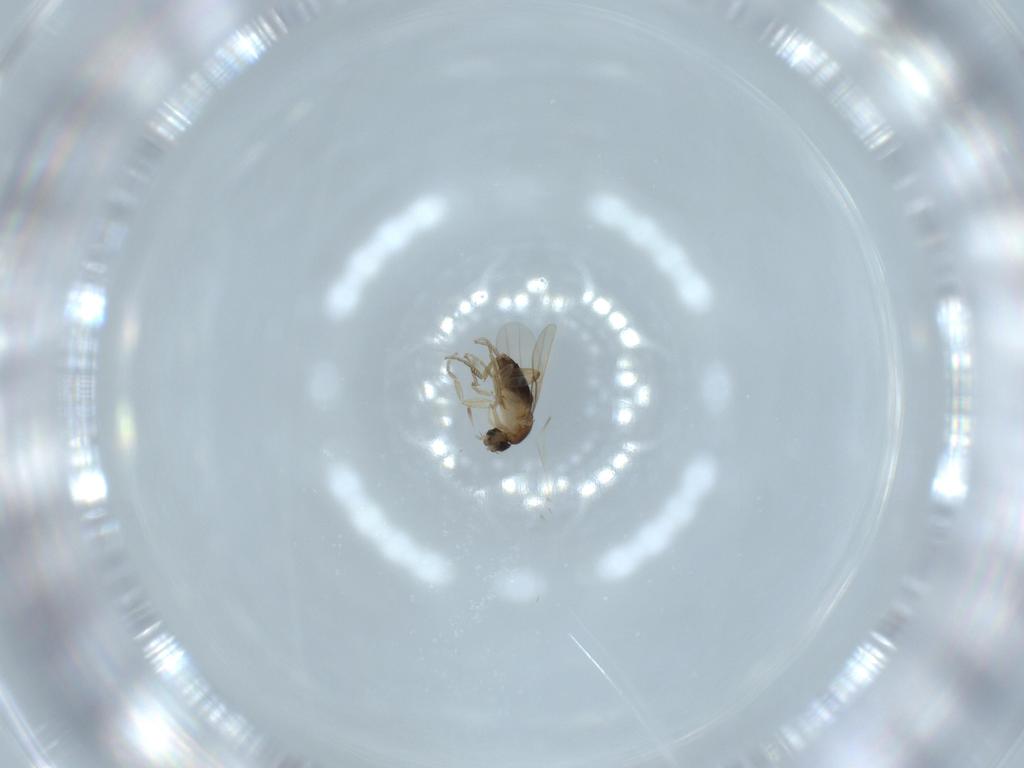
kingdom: Animalia
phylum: Arthropoda
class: Insecta
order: Diptera
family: Phoridae
